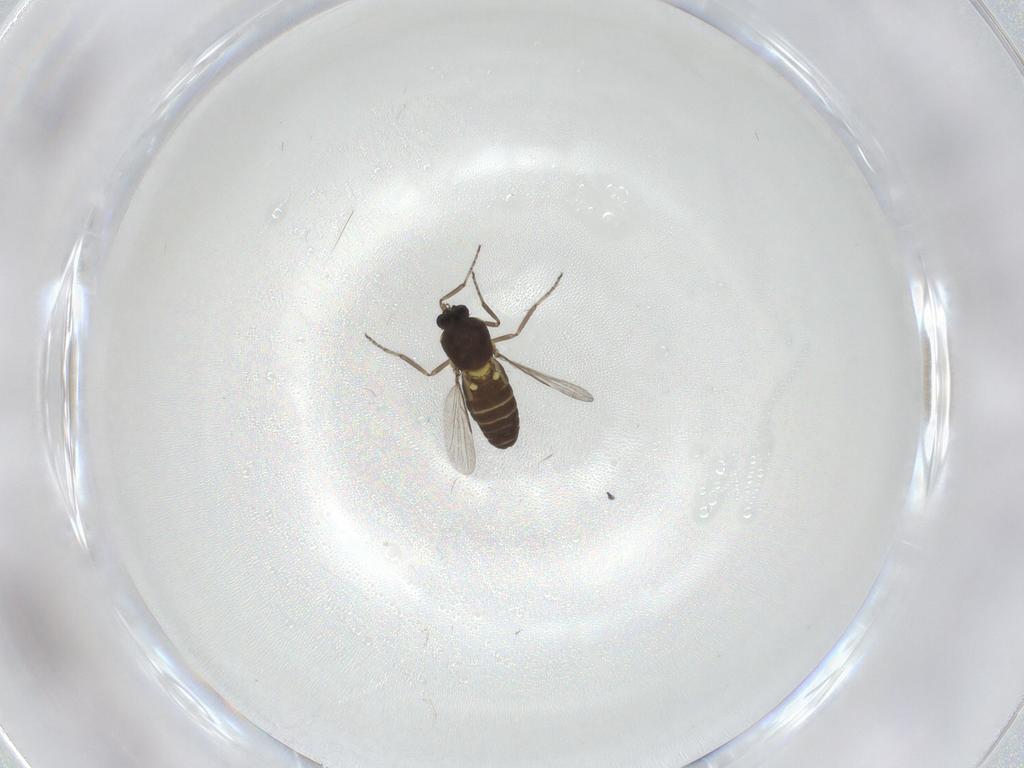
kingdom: Animalia
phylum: Arthropoda
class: Insecta
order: Diptera
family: Ceratopogonidae
